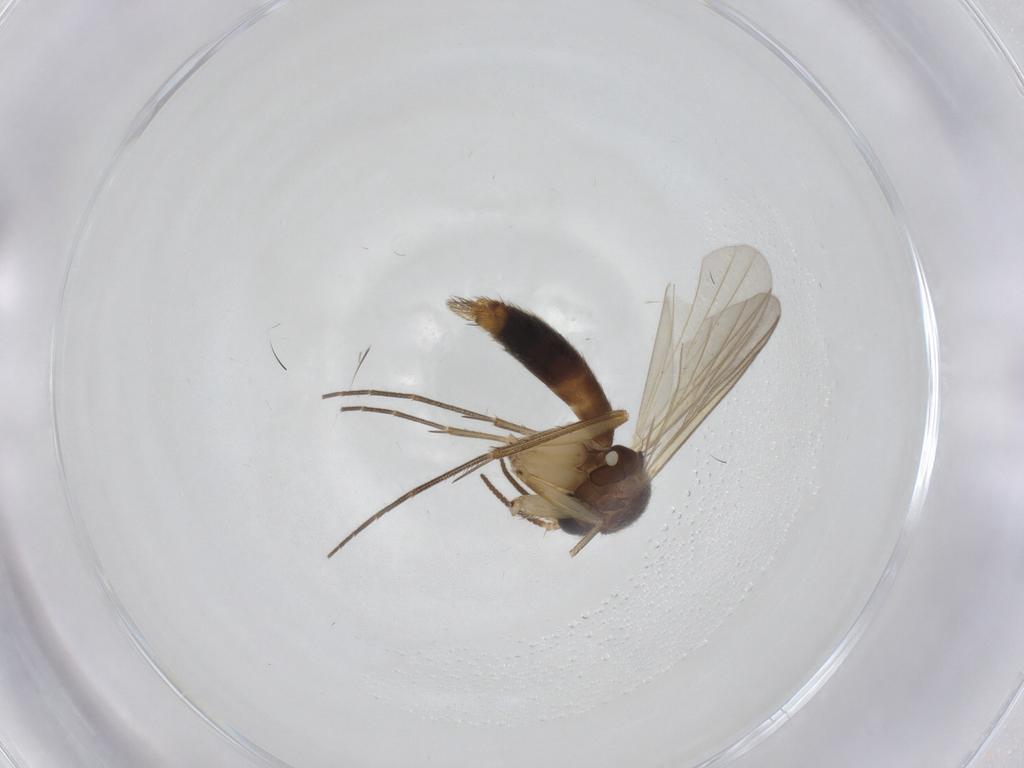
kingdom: Animalia
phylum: Arthropoda
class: Insecta
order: Diptera
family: Mycetophilidae
